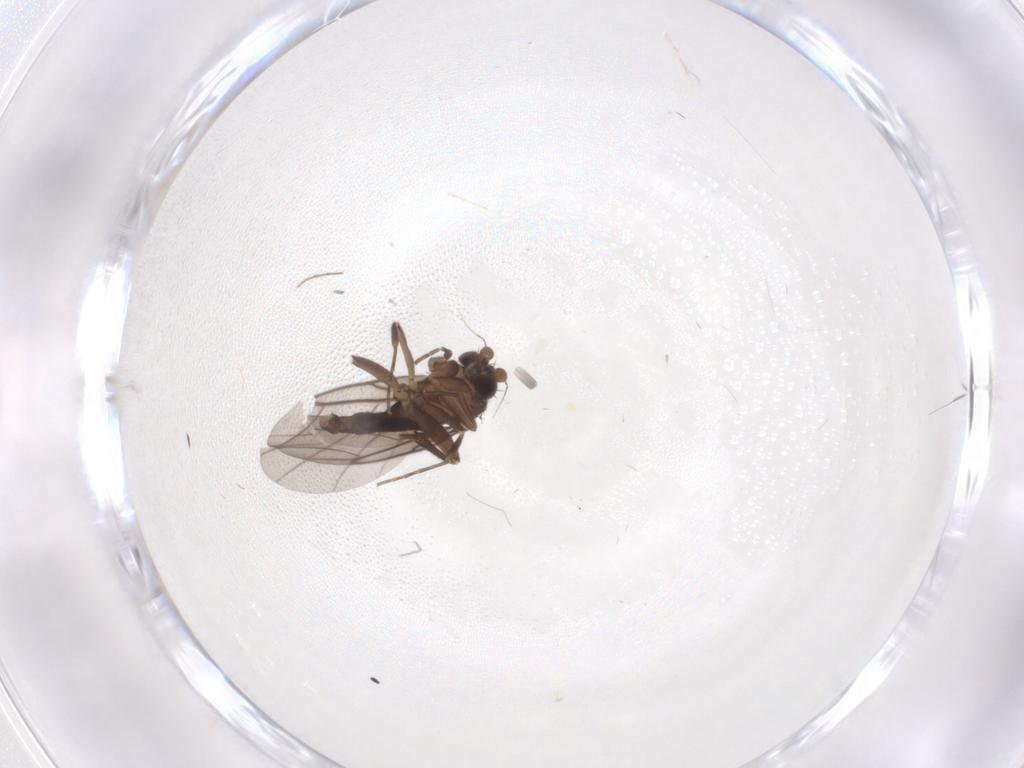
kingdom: Animalia
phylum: Arthropoda
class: Insecta
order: Diptera
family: Cecidomyiidae
